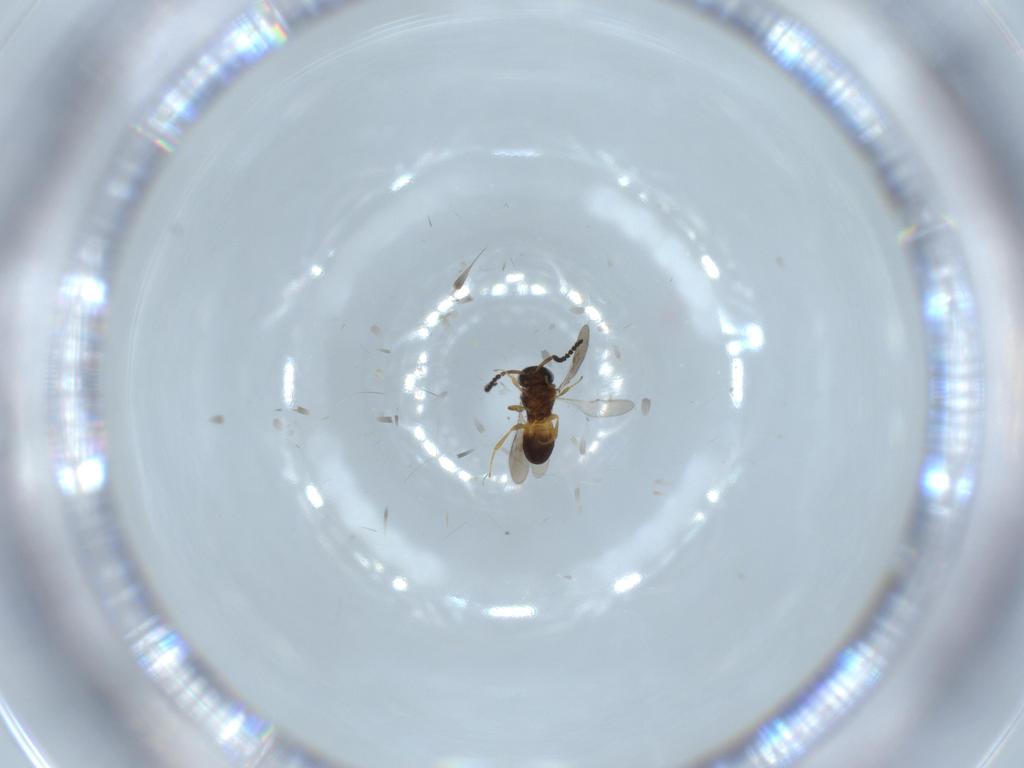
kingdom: Animalia
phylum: Arthropoda
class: Insecta
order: Hymenoptera
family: Scelionidae
